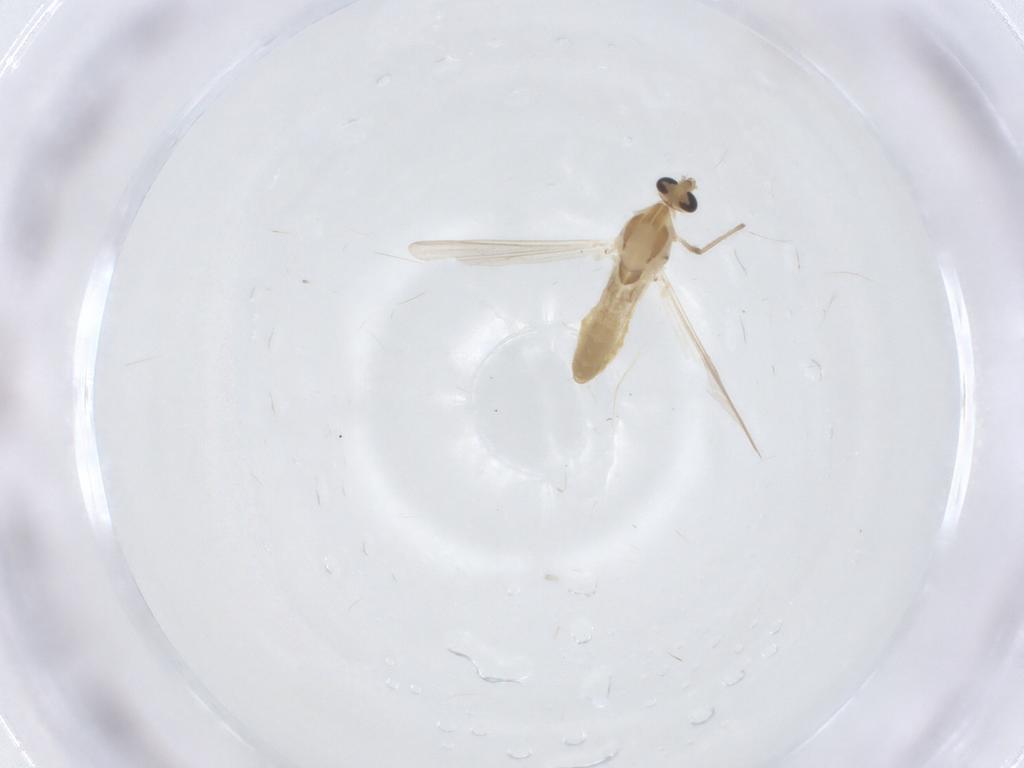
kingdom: Animalia
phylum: Arthropoda
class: Insecta
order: Diptera
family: Chironomidae
